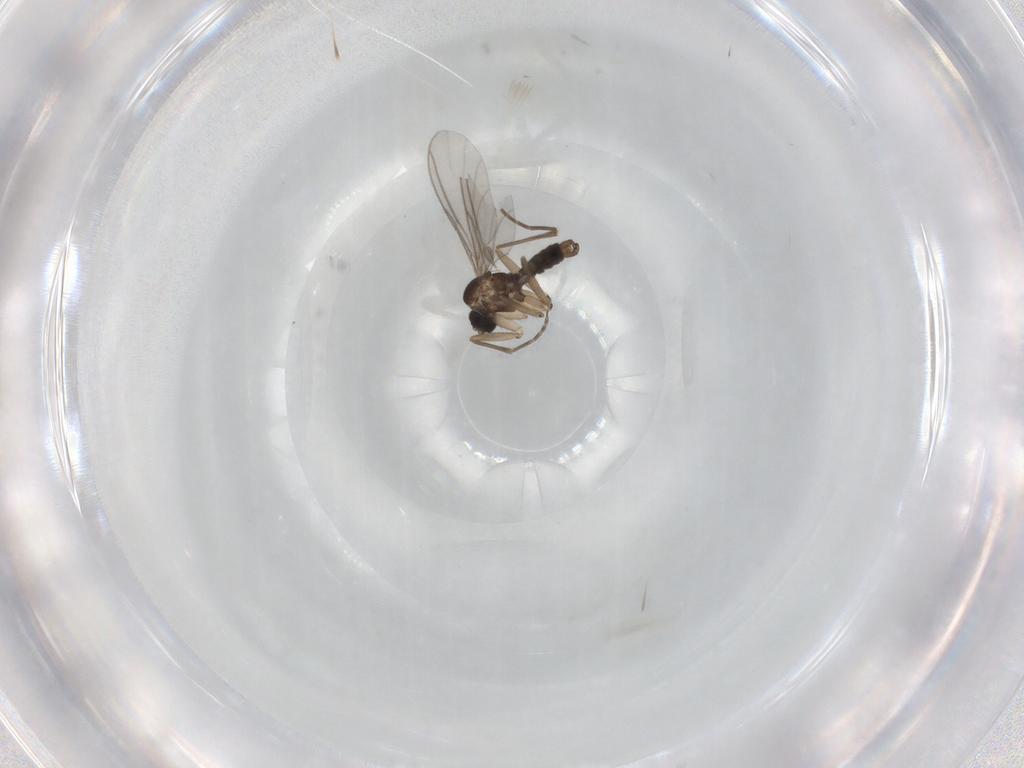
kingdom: Animalia
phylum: Arthropoda
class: Insecta
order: Diptera
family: Sciaridae
